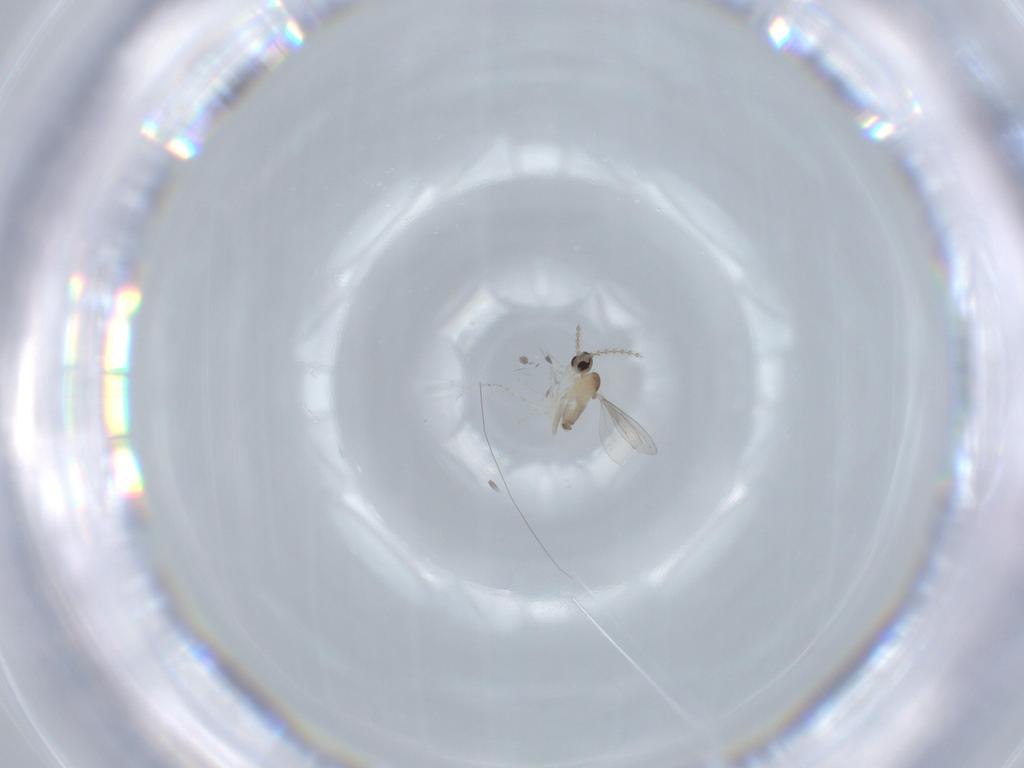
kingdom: Animalia
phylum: Arthropoda
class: Insecta
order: Diptera
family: Cecidomyiidae
